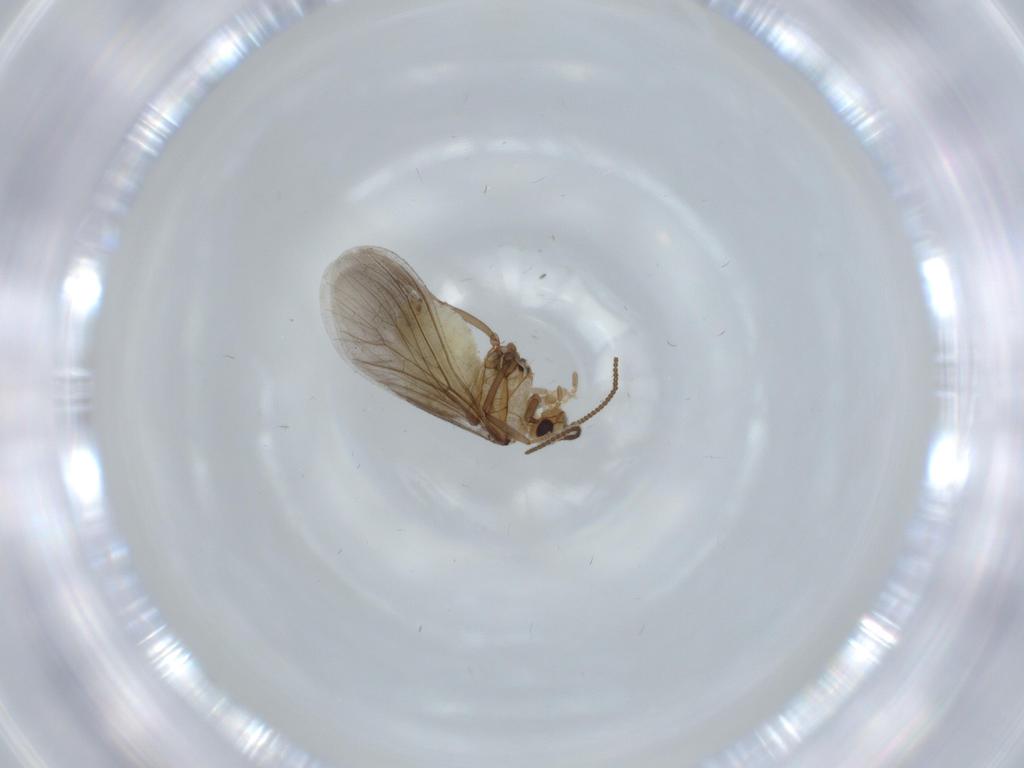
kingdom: Animalia
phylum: Arthropoda
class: Insecta
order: Neuroptera
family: Coniopterygidae
